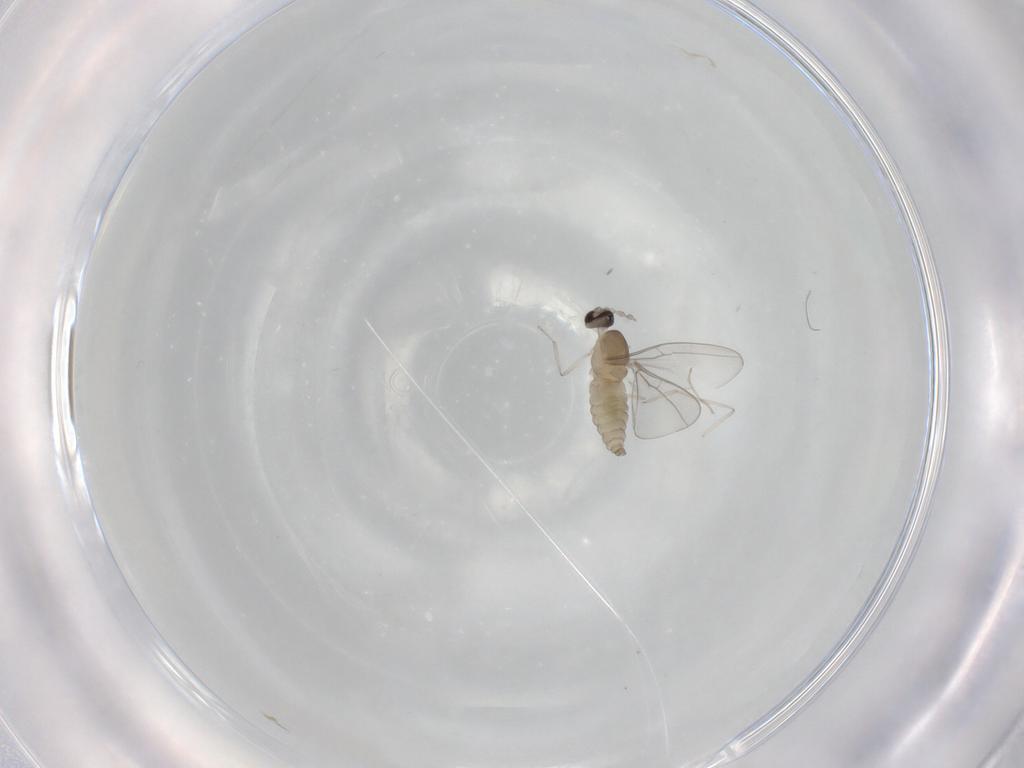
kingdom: Animalia
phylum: Arthropoda
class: Insecta
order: Diptera
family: Cecidomyiidae
